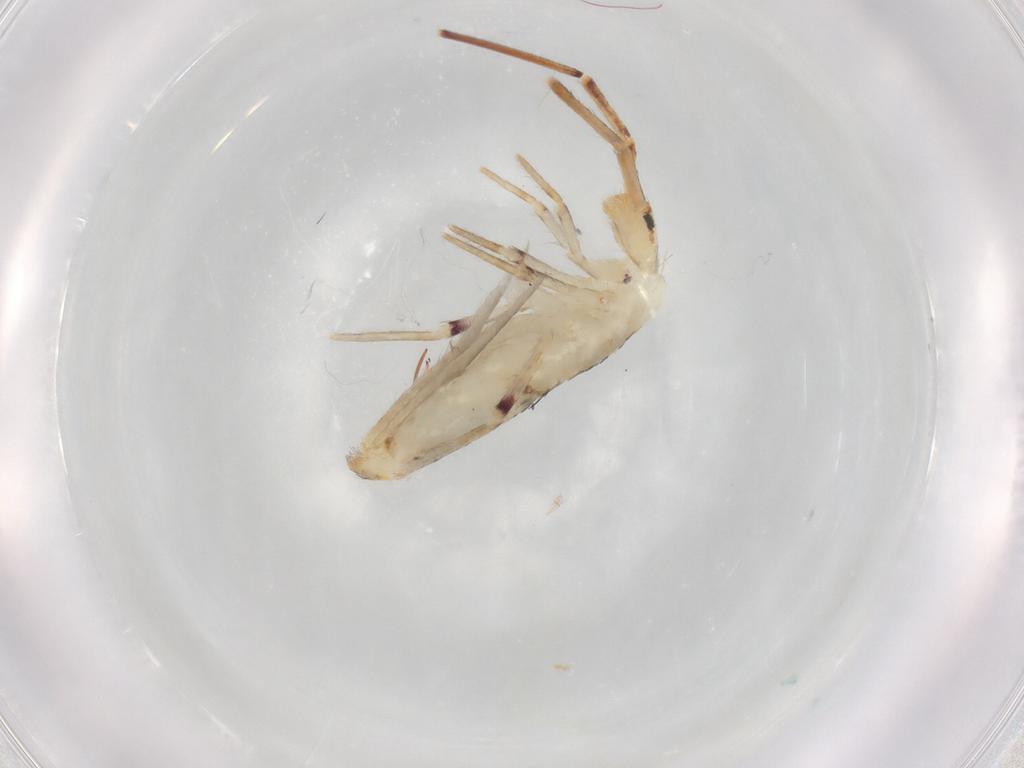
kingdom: Animalia
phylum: Arthropoda
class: Collembola
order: Entomobryomorpha
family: Entomobryidae
